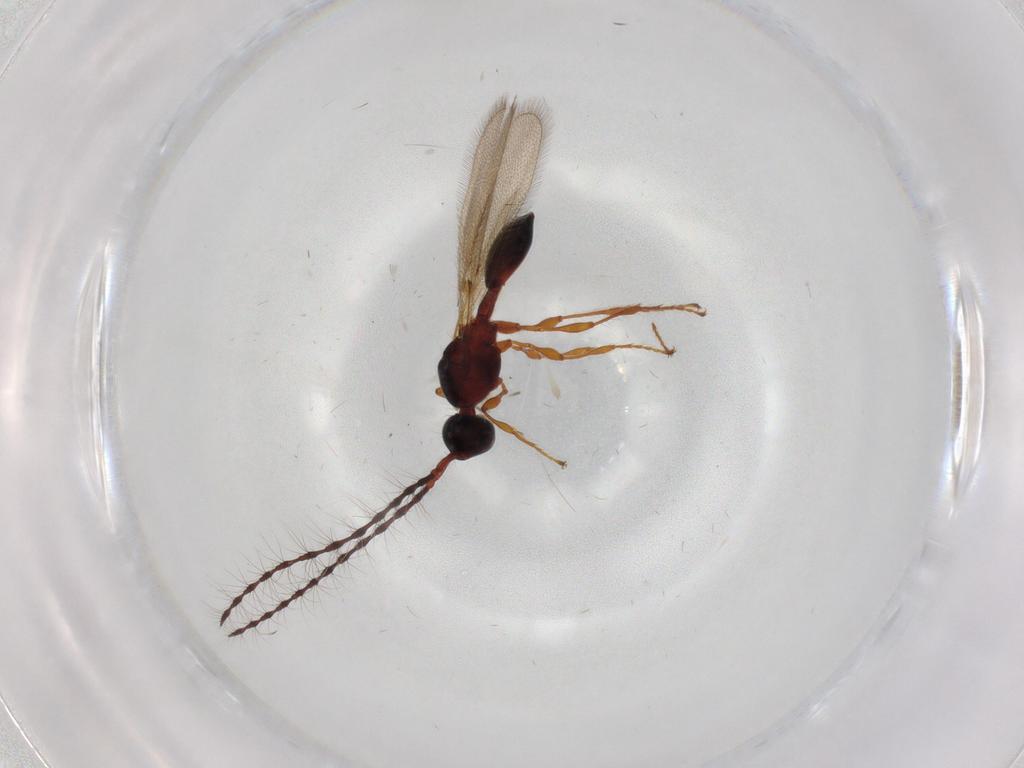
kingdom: Animalia
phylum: Arthropoda
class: Insecta
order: Hymenoptera
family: Diapriidae
